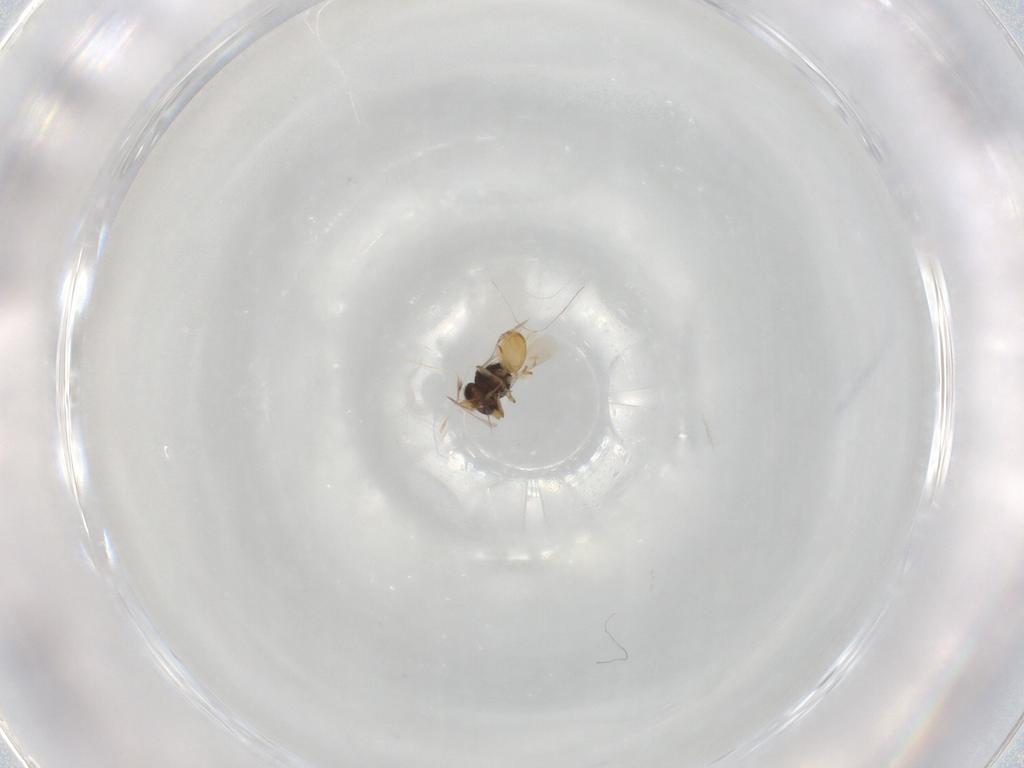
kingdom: Animalia
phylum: Arthropoda
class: Insecta
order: Hymenoptera
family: Scelionidae
